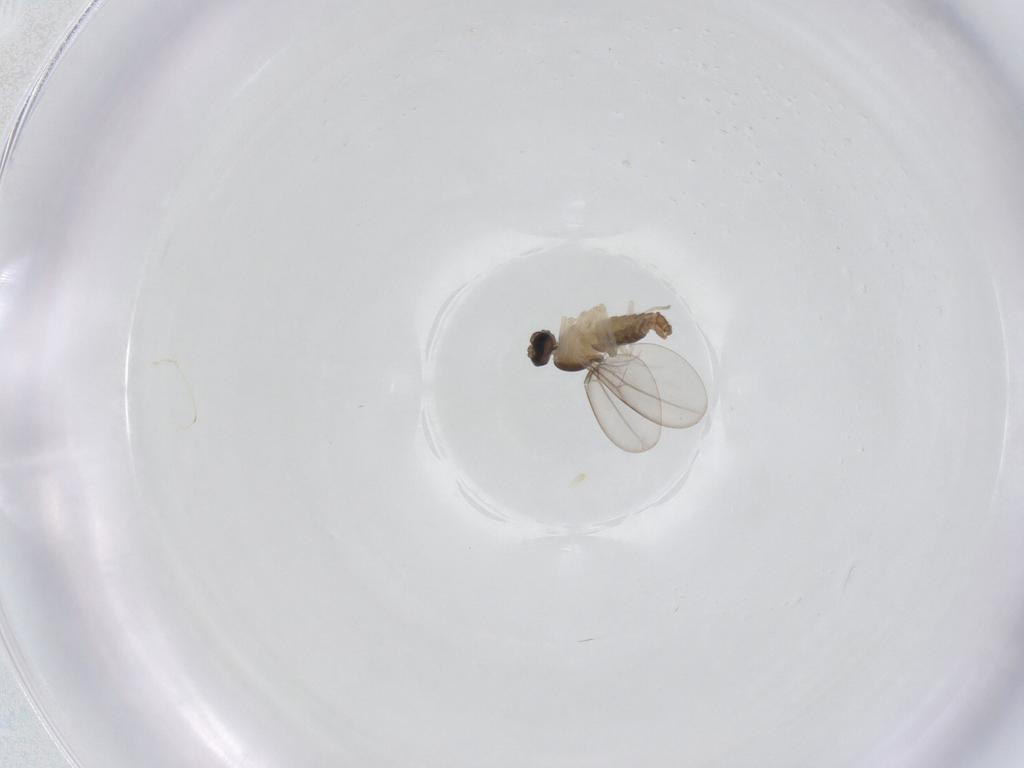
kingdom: Animalia
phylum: Arthropoda
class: Insecta
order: Diptera
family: Cecidomyiidae
